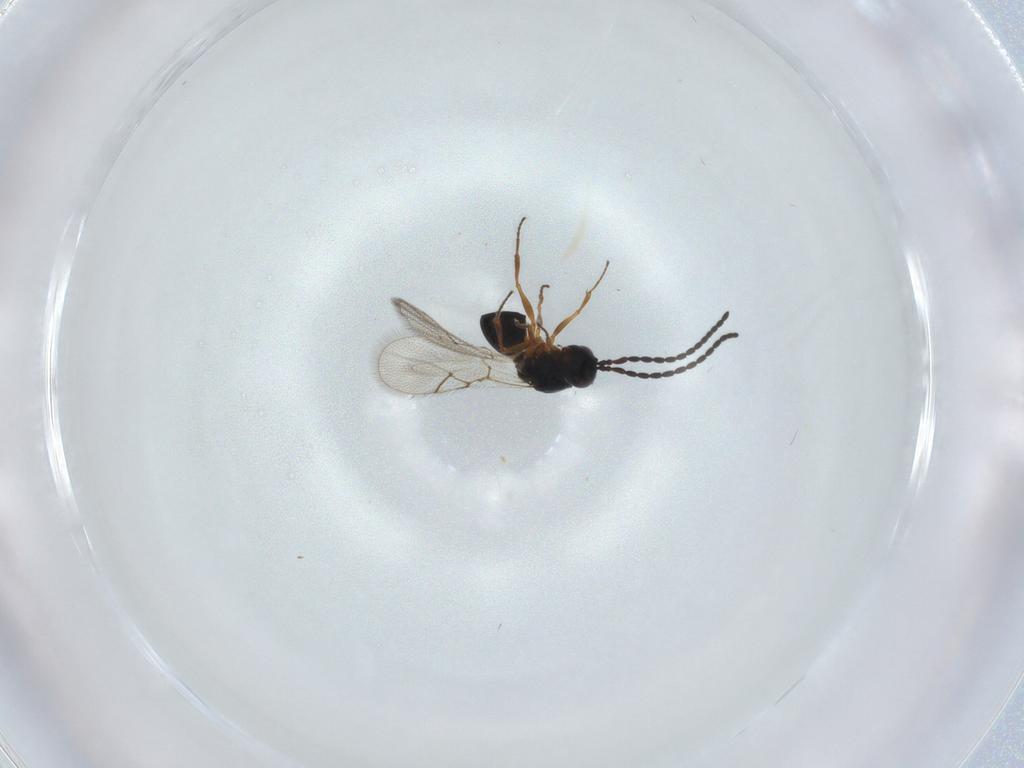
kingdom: Animalia
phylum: Arthropoda
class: Insecta
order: Hymenoptera
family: Figitidae
